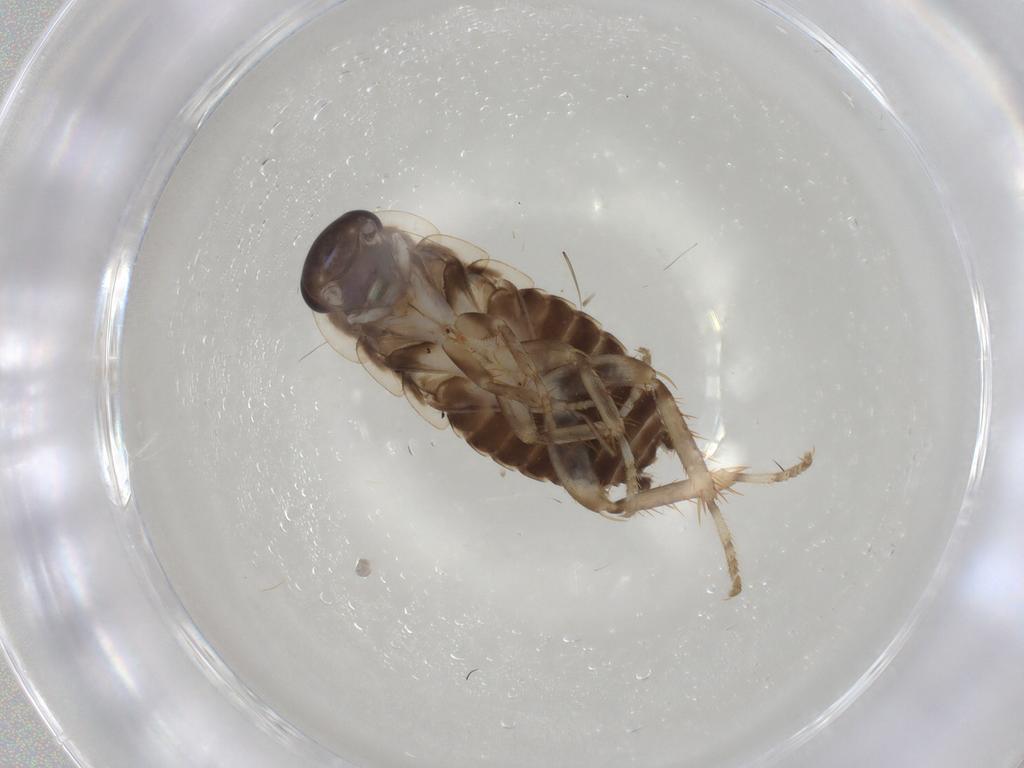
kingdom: Animalia
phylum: Arthropoda
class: Insecta
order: Blattodea
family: Blaberidae
